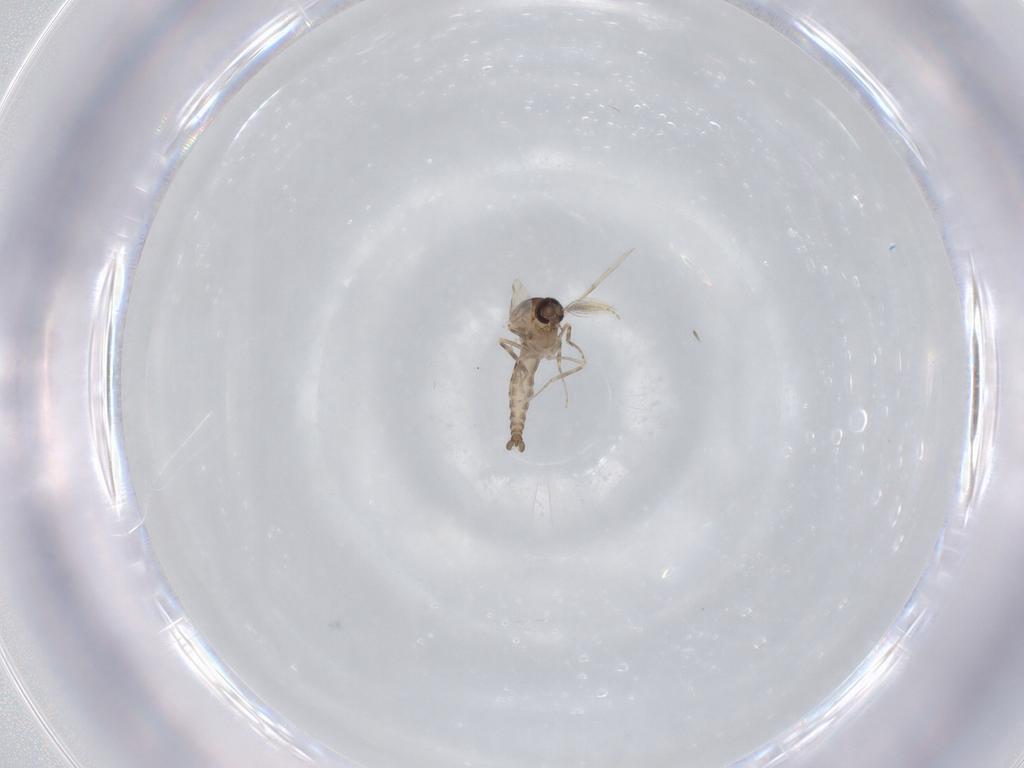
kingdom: Animalia
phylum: Arthropoda
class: Insecta
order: Diptera
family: Ceratopogonidae
